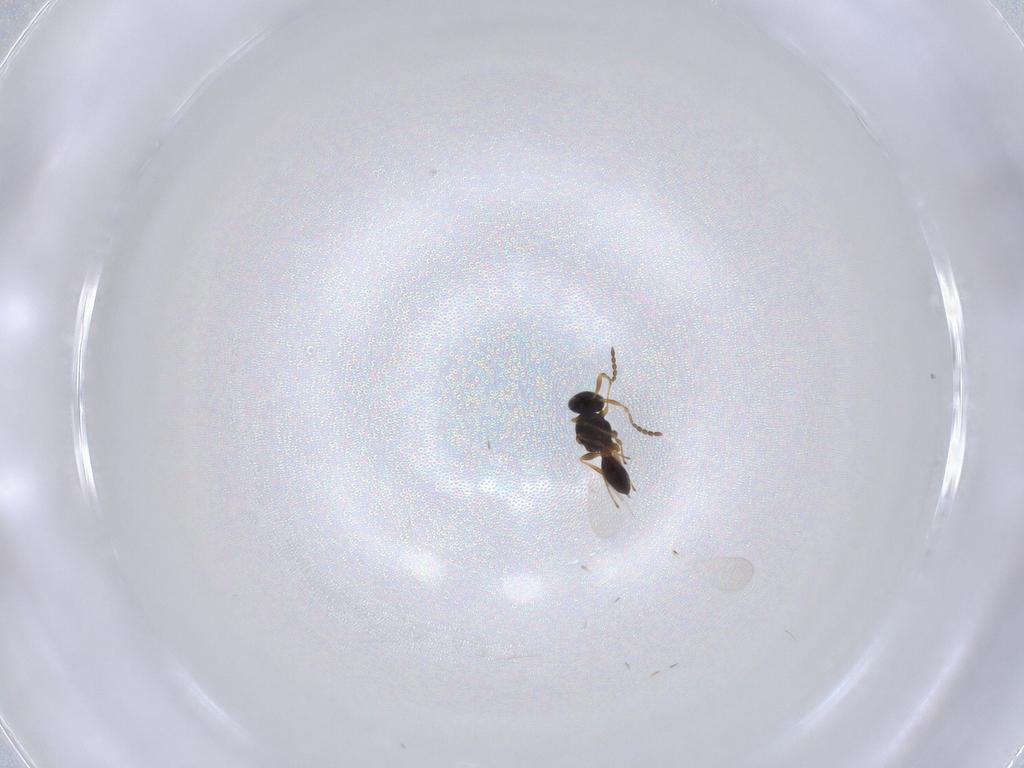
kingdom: Animalia
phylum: Arthropoda
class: Insecta
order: Hymenoptera
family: Platygastridae
